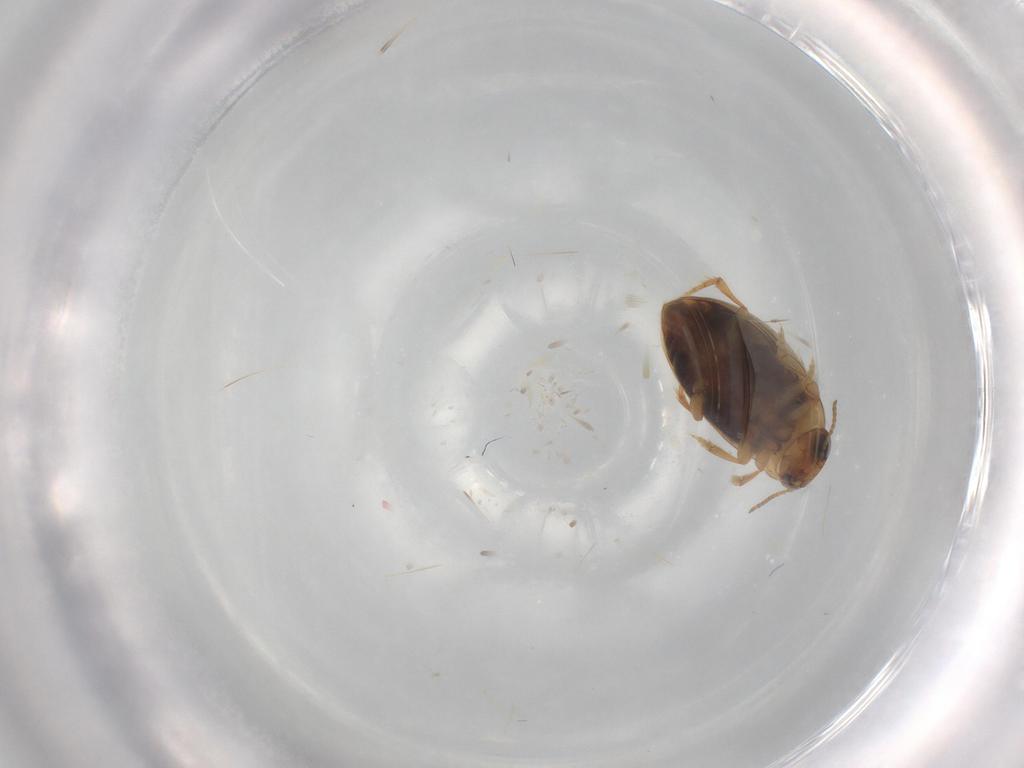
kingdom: Animalia
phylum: Arthropoda
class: Insecta
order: Coleoptera
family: Dytiscidae
